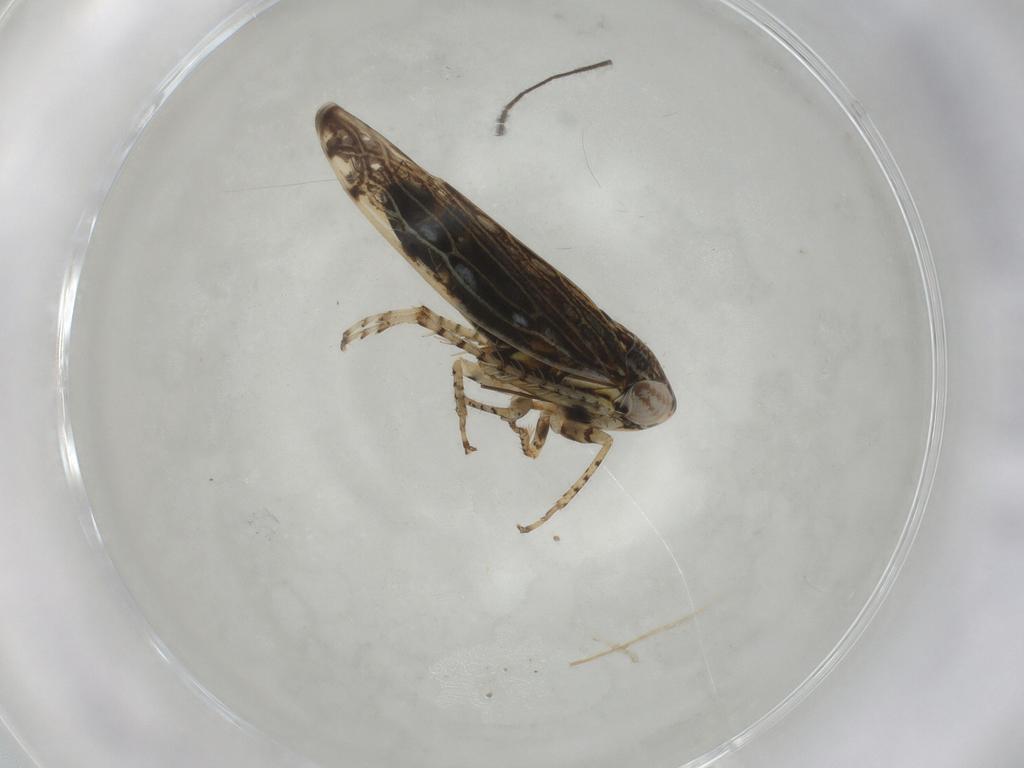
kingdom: Animalia
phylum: Arthropoda
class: Insecta
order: Hemiptera
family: Cicadellidae
